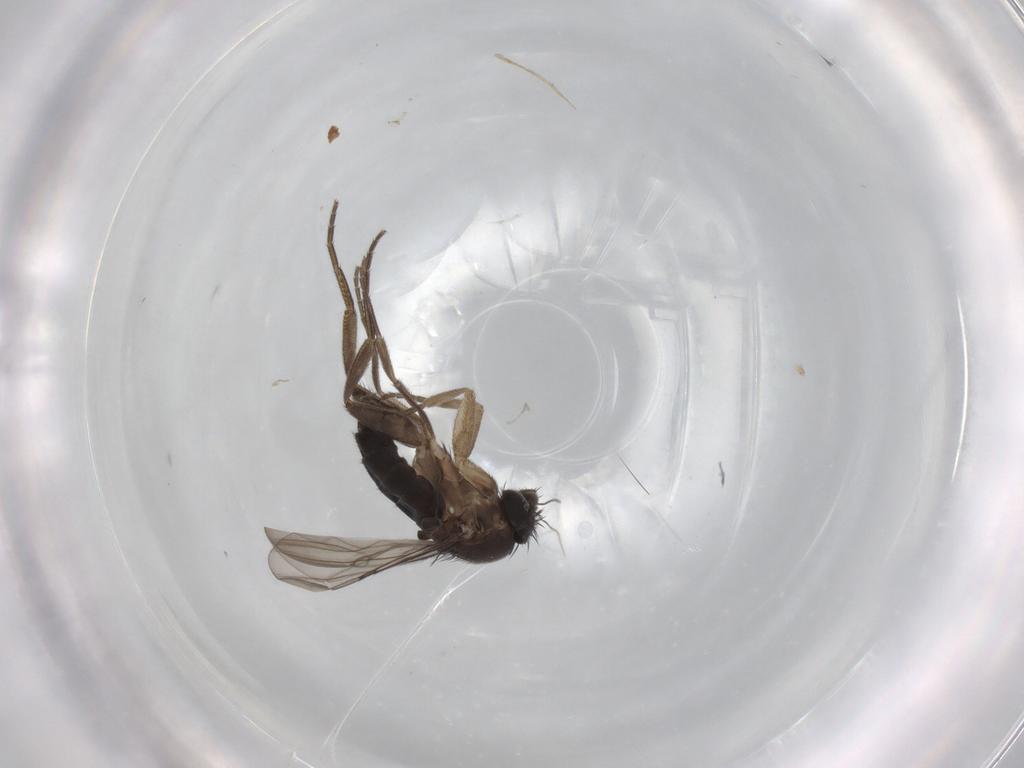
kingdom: Animalia
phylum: Arthropoda
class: Insecta
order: Diptera
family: Phoridae
